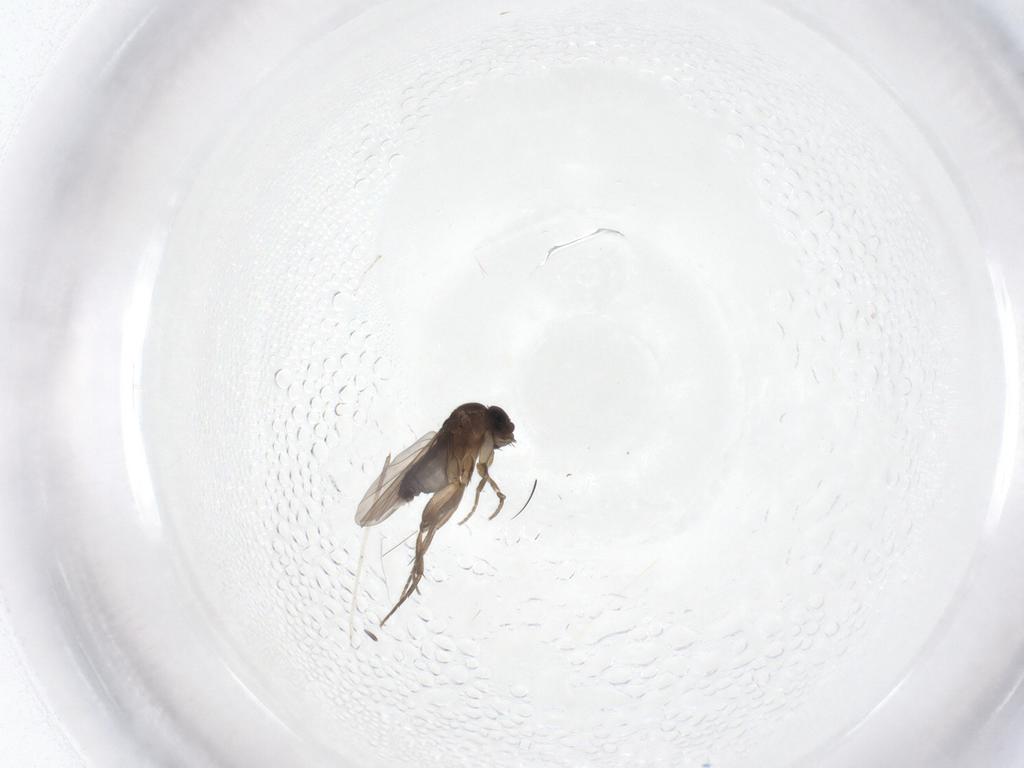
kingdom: Animalia
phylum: Arthropoda
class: Insecta
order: Diptera
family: Phoridae
